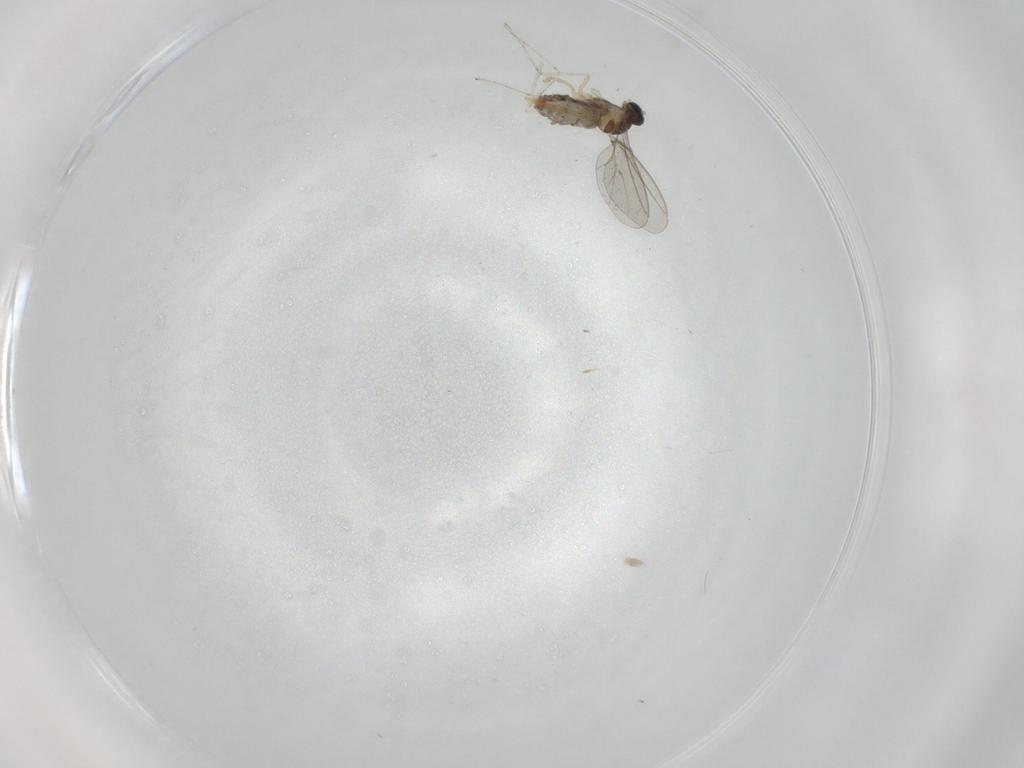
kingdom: Animalia
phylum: Arthropoda
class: Insecta
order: Diptera
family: Cecidomyiidae
